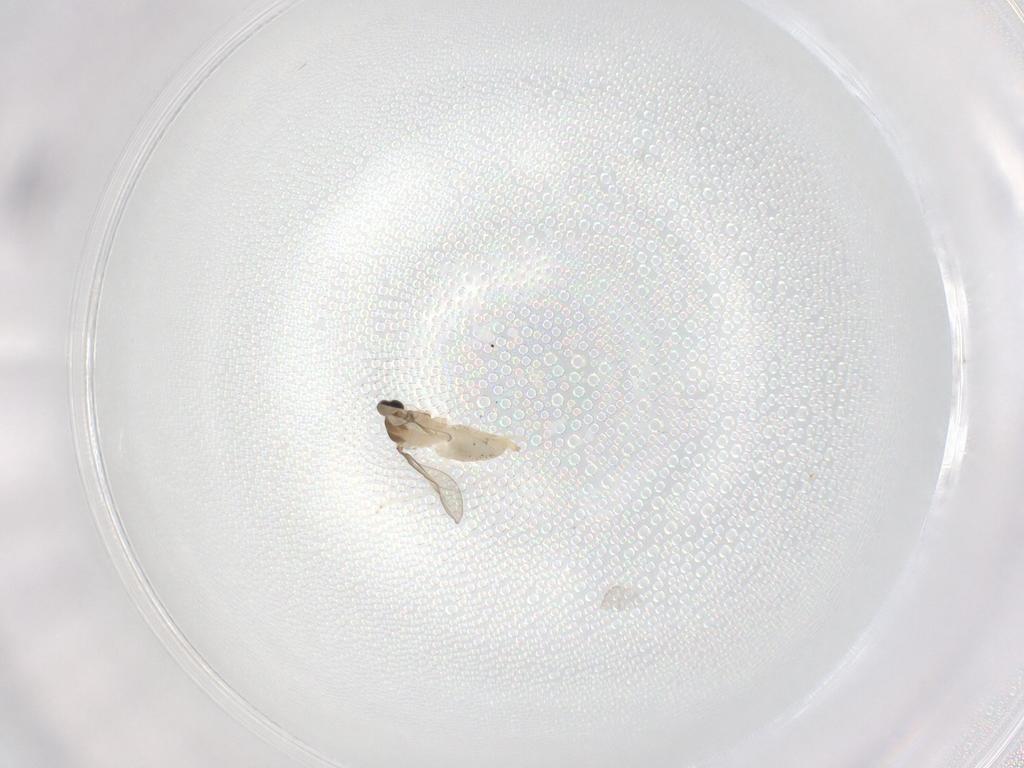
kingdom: Animalia
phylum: Arthropoda
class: Insecta
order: Diptera
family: Cecidomyiidae
